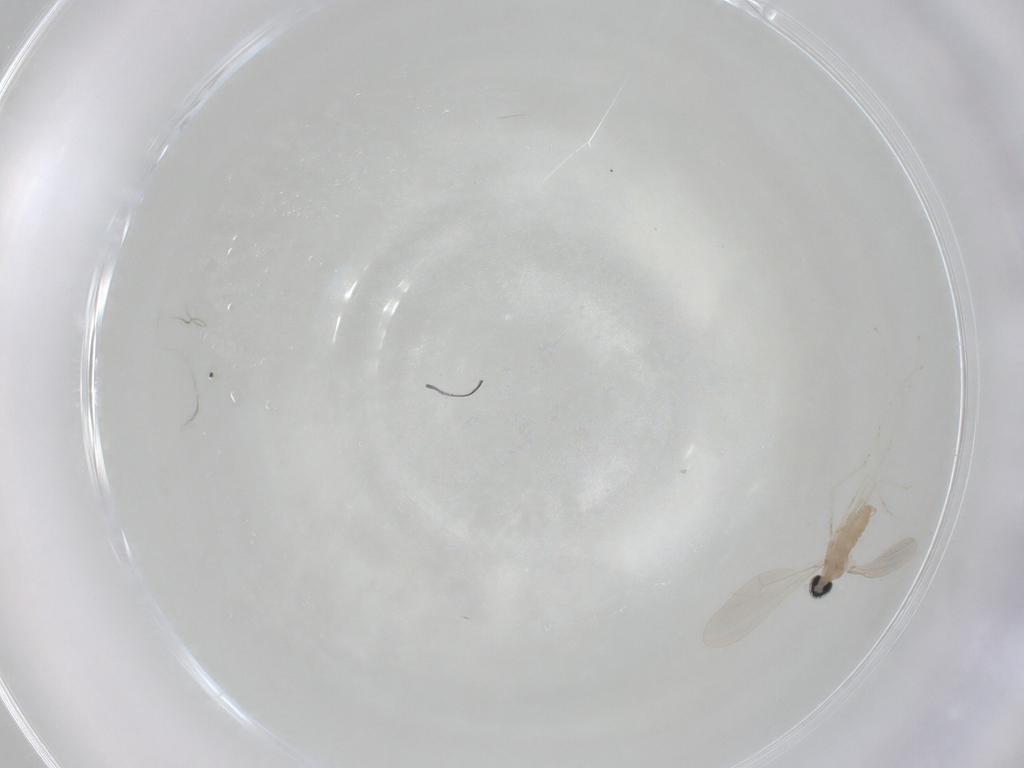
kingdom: Animalia
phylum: Arthropoda
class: Insecta
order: Diptera
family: Cecidomyiidae
